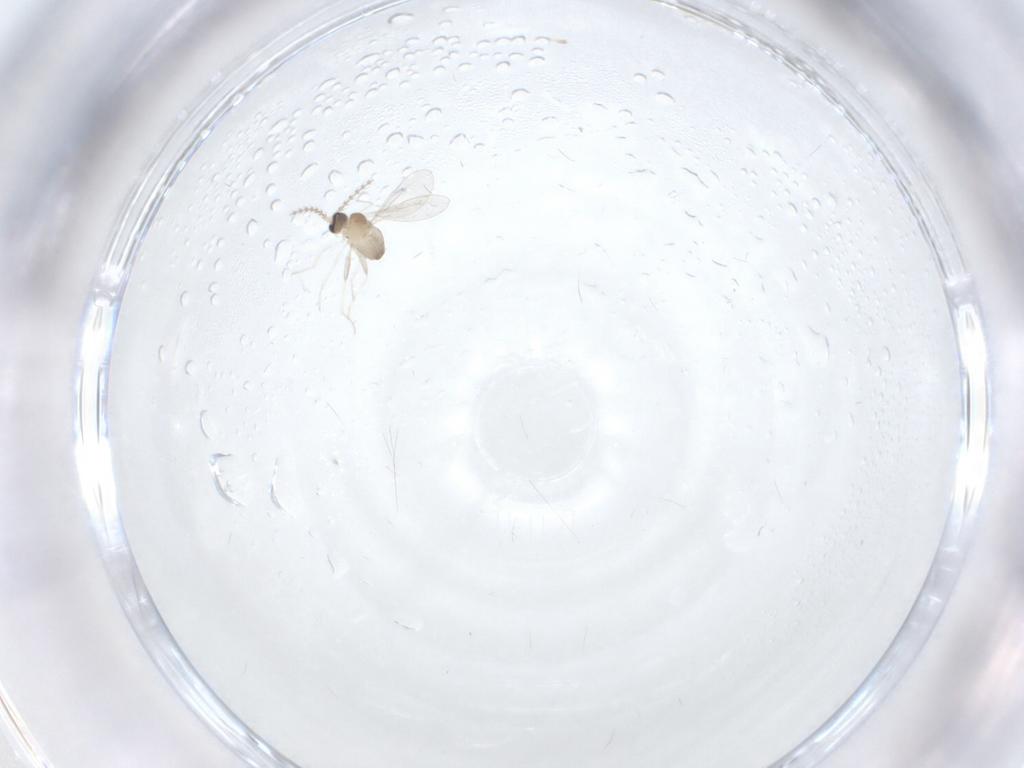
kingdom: Animalia
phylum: Arthropoda
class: Insecta
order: Diptera
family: Cecidomyiidae
